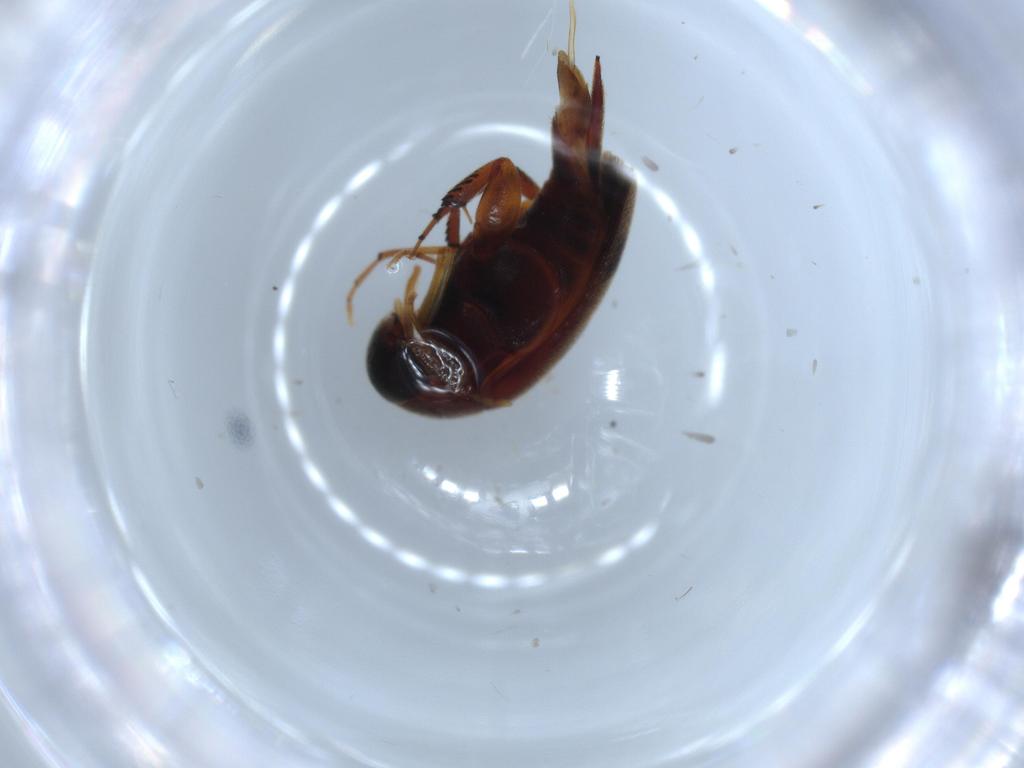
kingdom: Animalia
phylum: Arthropoda
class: Insecta
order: Coleoptera
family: Mordellidae
